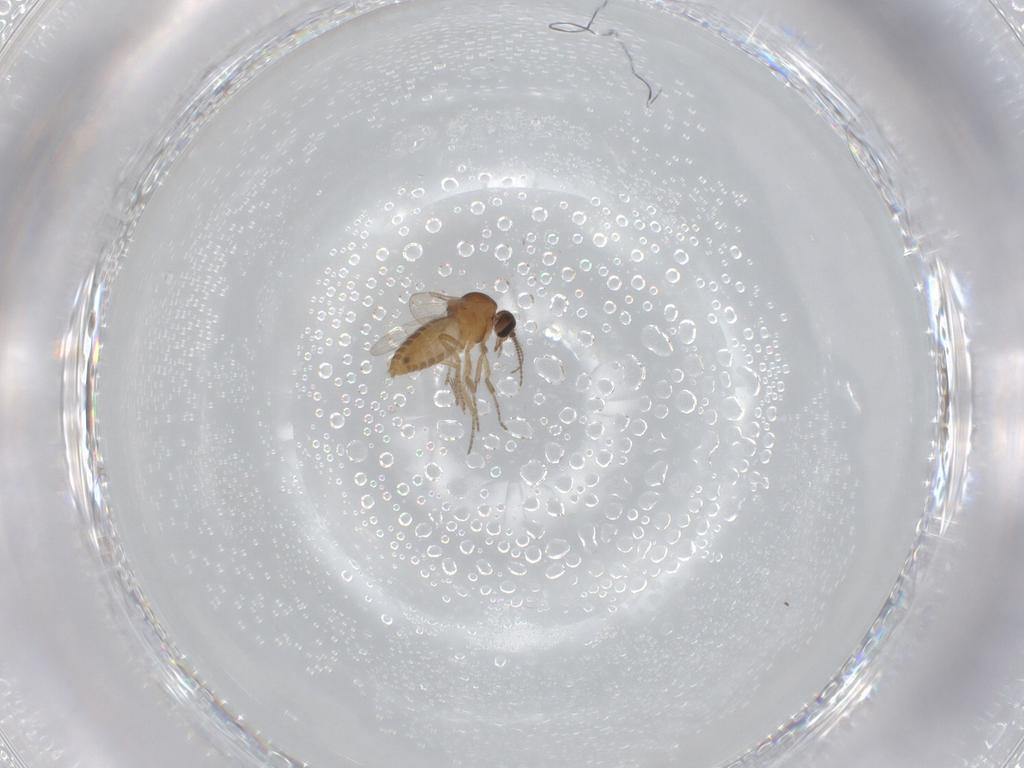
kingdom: Animalia
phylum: Arthropoda
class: Insecta
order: Diptera
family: Ceratopogonidae
